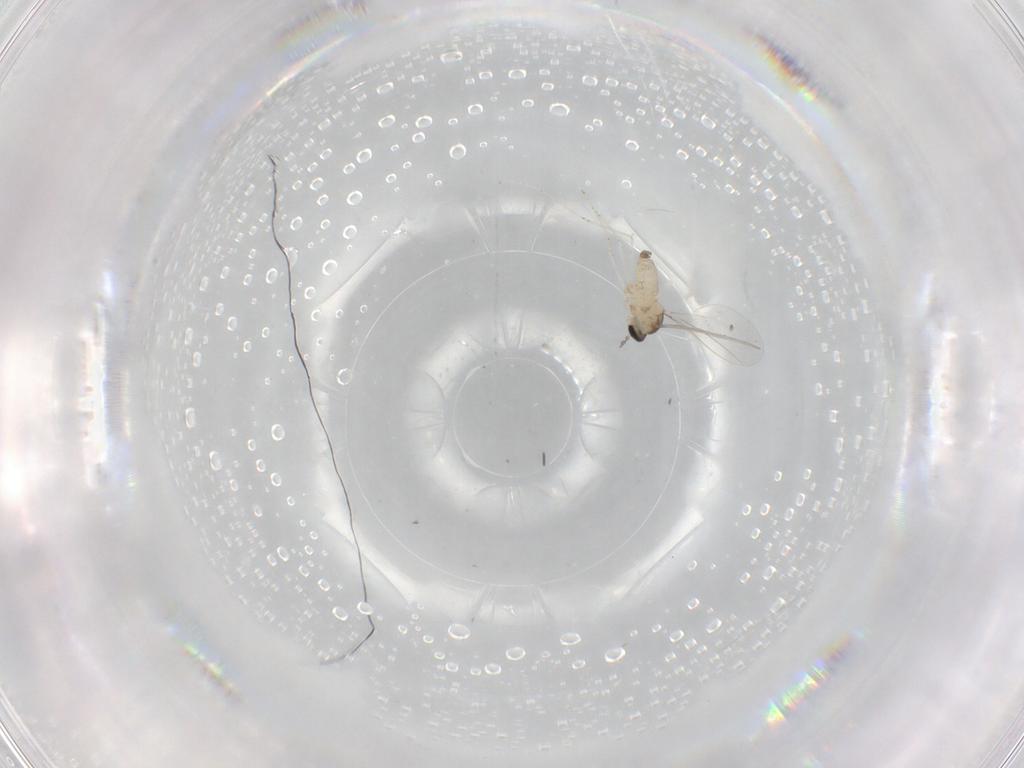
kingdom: Animalia
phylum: Arthropoda
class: Insecta
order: Diptera
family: Cecidomyiidae
